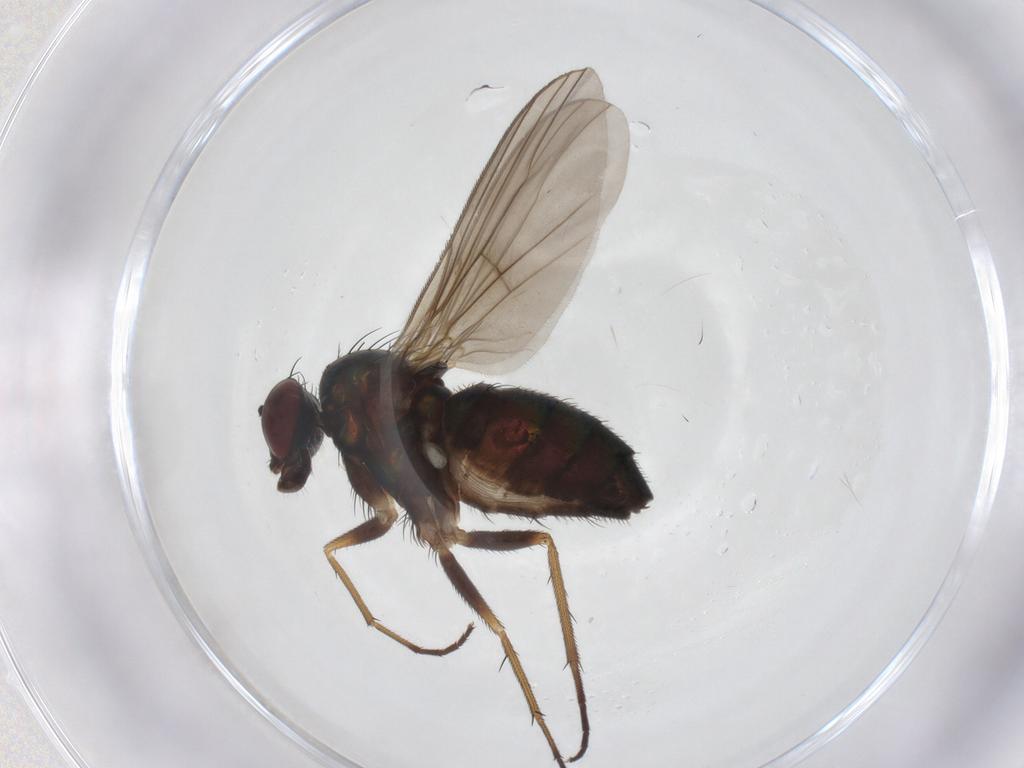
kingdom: Animalia
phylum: Arthropoda
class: Insecta
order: Diptera
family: Dolichopodidae
